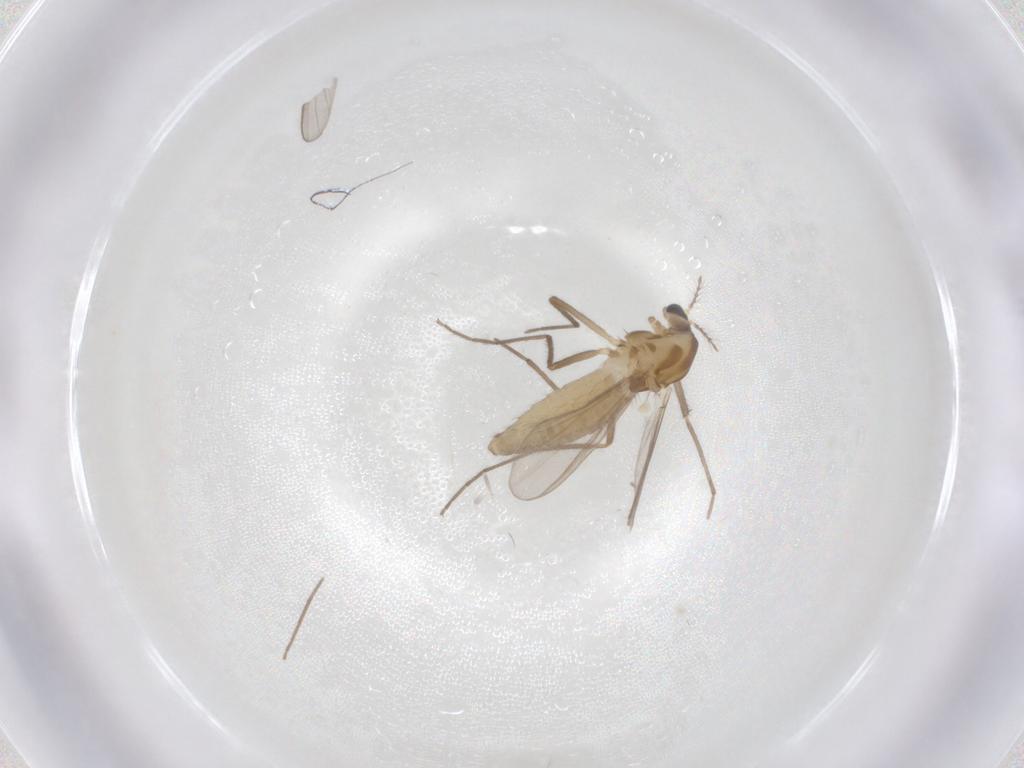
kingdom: Animalia
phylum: Arthropoda
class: Insecta
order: Diptera
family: Chironomidae
